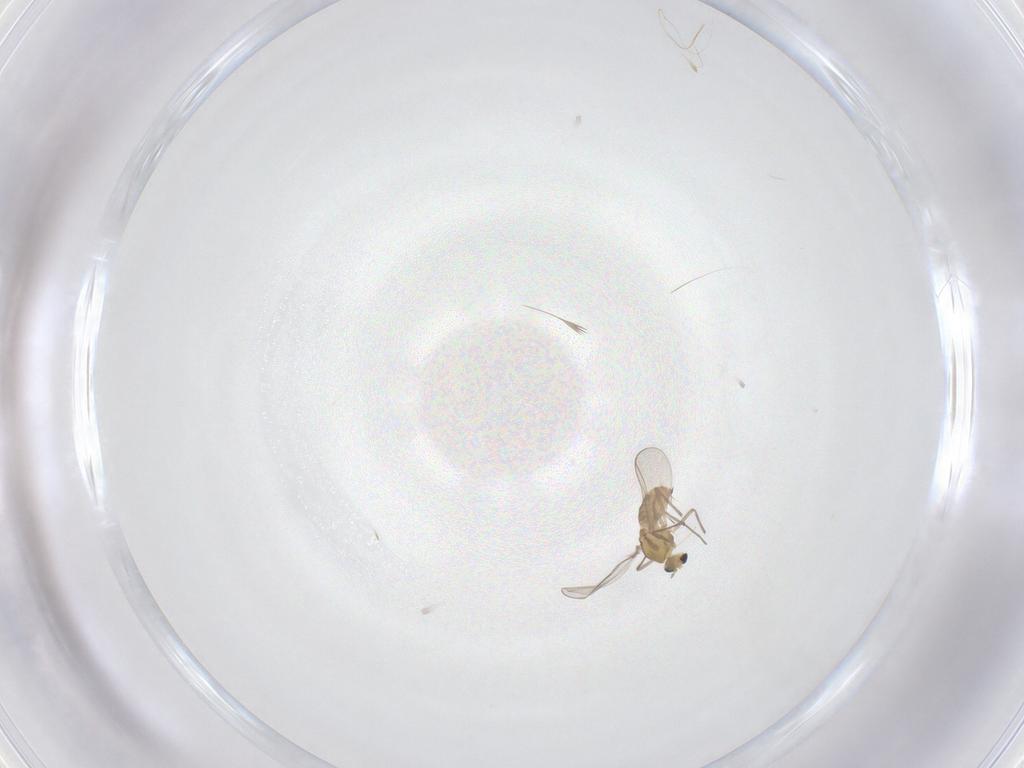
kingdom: Animalia
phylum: Arthropoda
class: Insecta
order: Diptera
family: Ceratopogonidae
